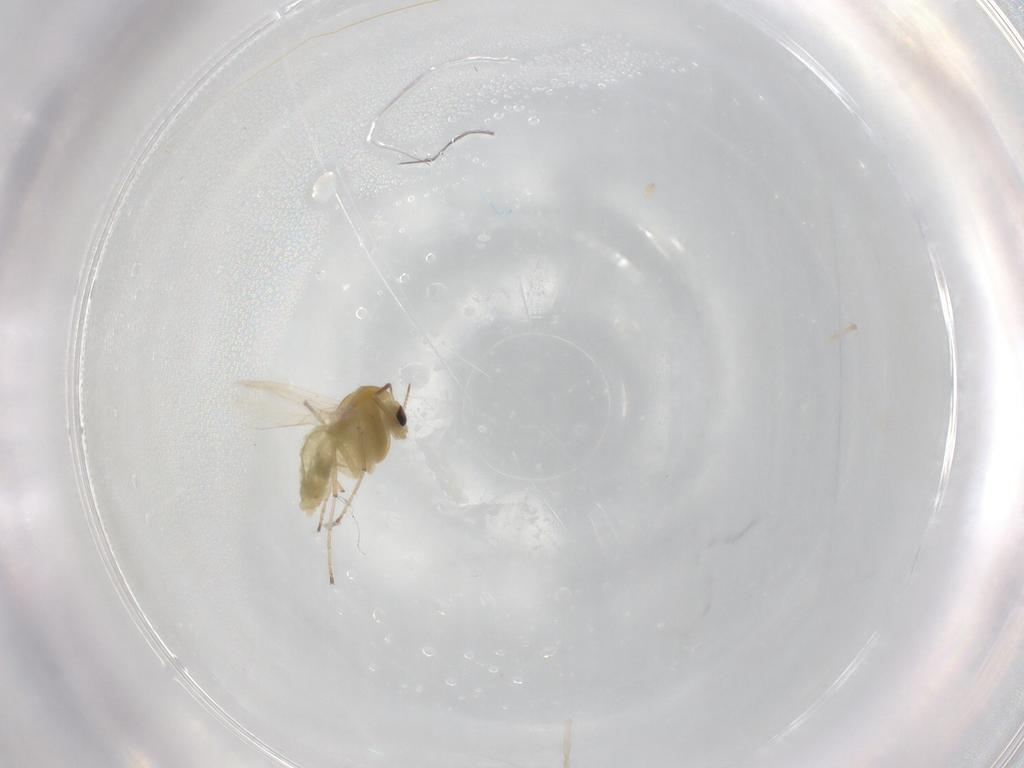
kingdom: Animalia
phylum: Arthropoda
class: Insecta
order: Diptera
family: Chironomidae
